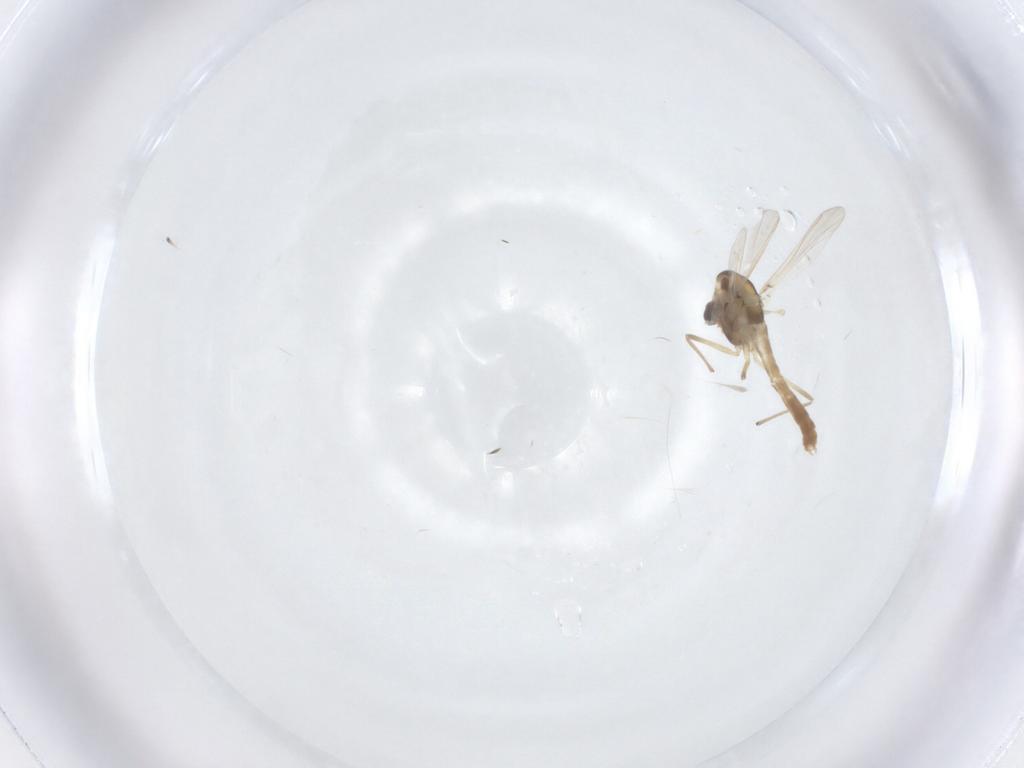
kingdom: Animalia
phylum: Arthropoda
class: Insecta
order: Diptera
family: Chironomidae
